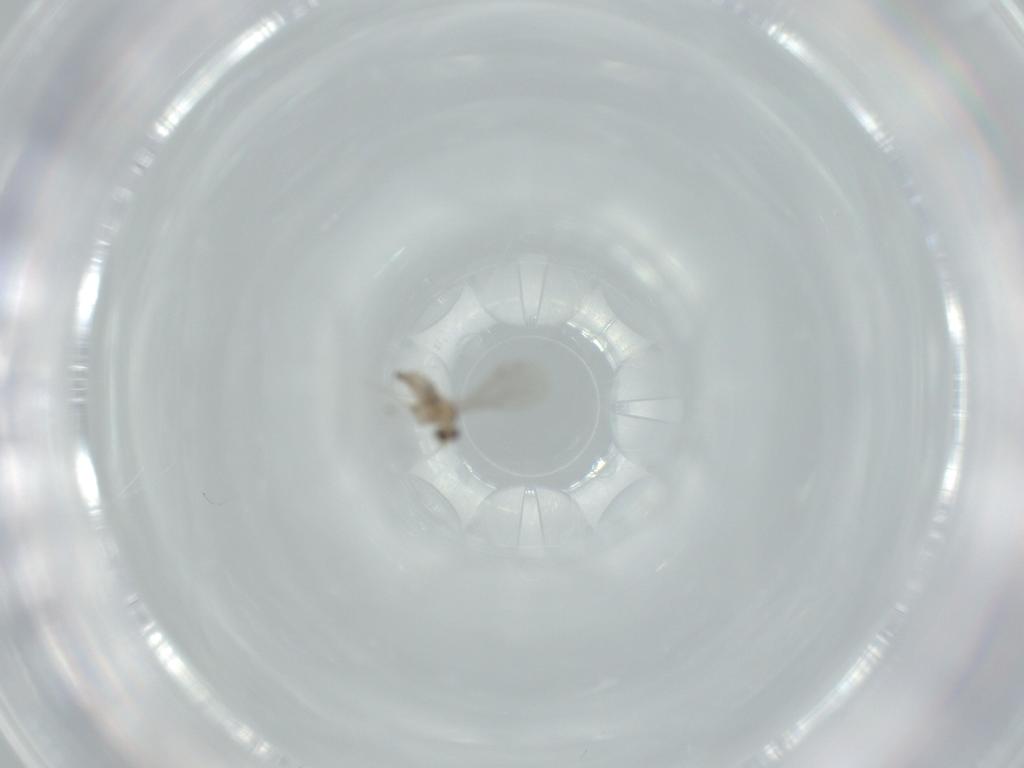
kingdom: Animalia
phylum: Arthropoda
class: Insecta
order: Diptera
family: Cecidomyiidae
